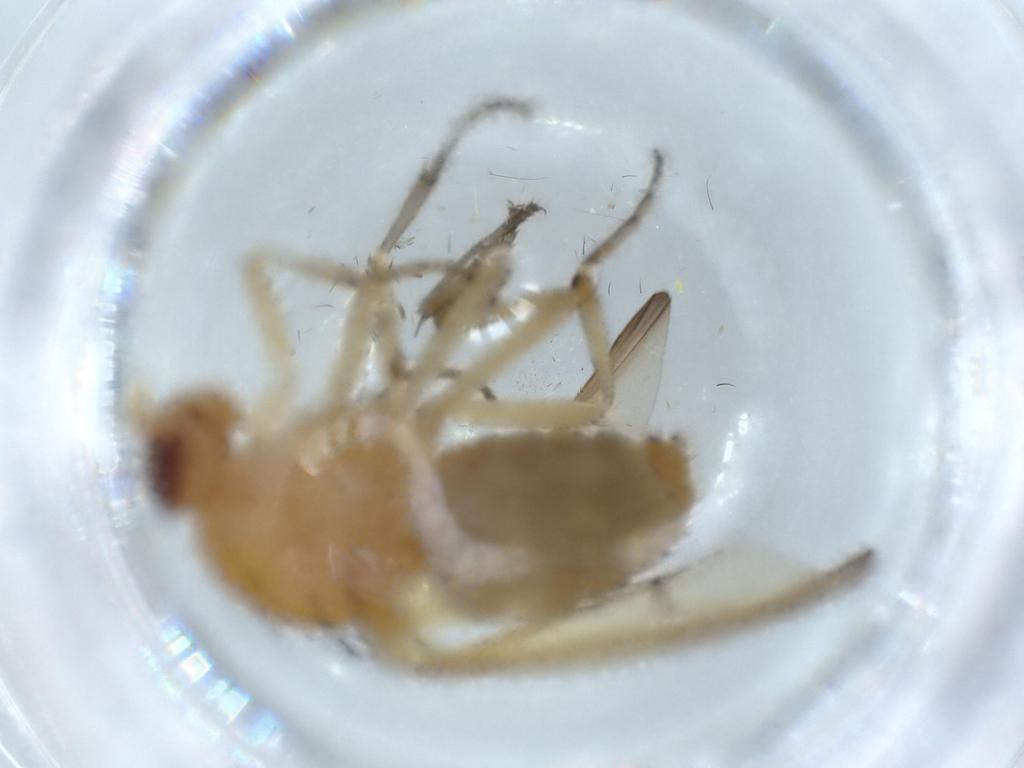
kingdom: Animalia
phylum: Arthropoda
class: Insecta
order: Diptera
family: Cecidomyiidae
